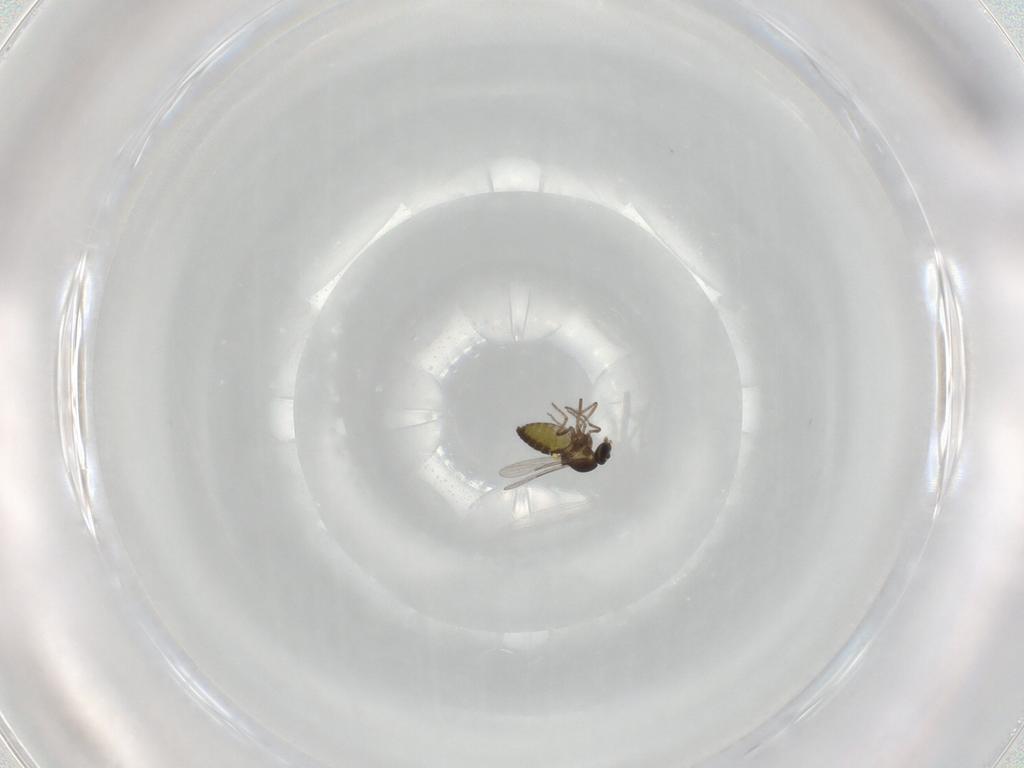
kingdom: Animalia
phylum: Arthropoda
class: Insecta
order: Diptera
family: Ceratopogonidae
